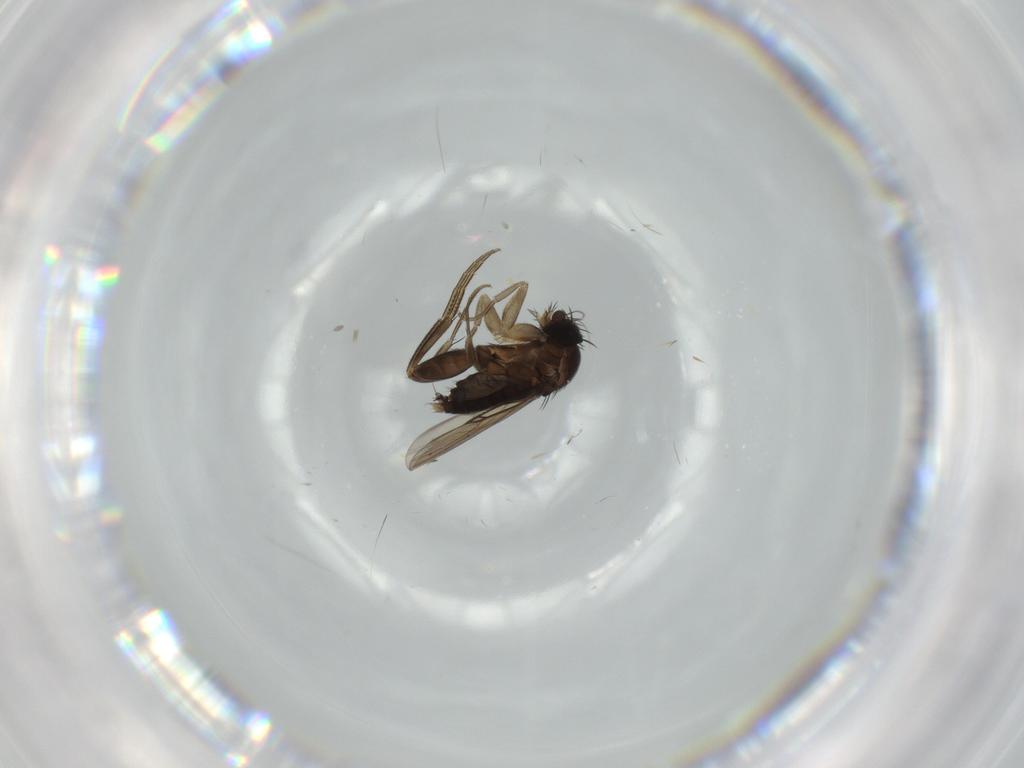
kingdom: Animalia
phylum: Arthropoda
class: Insecta
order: Diptera
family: Phoridae
